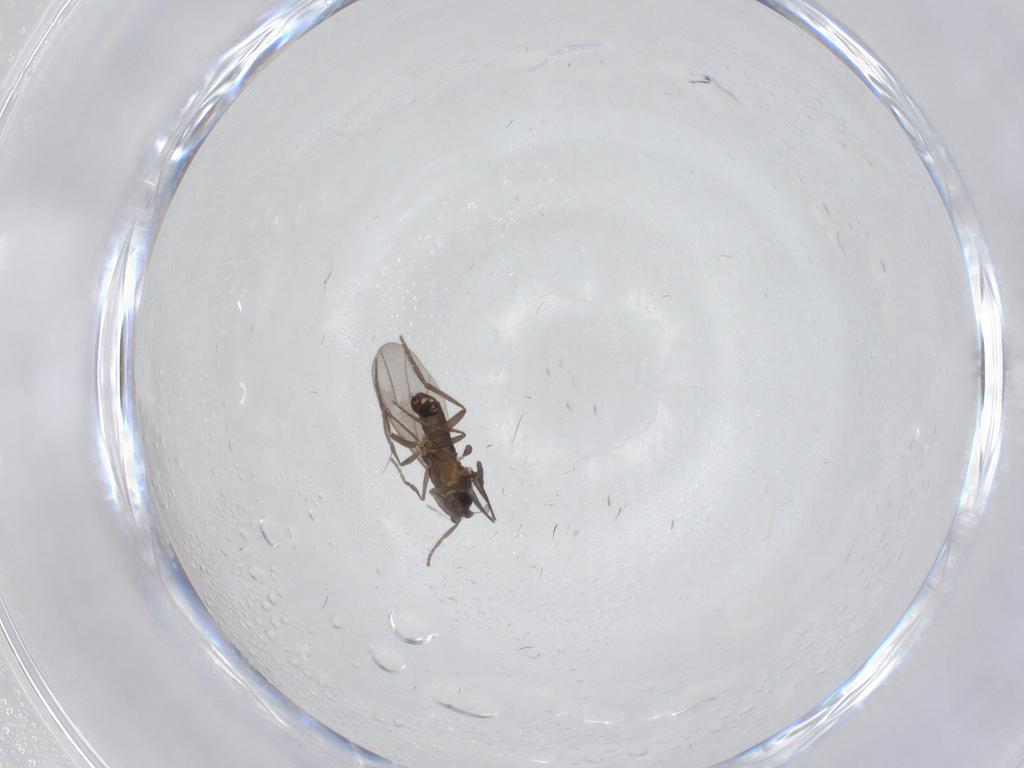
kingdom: Animalia
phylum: Arthropoda
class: Insecta
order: Diptera
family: Phoridae
